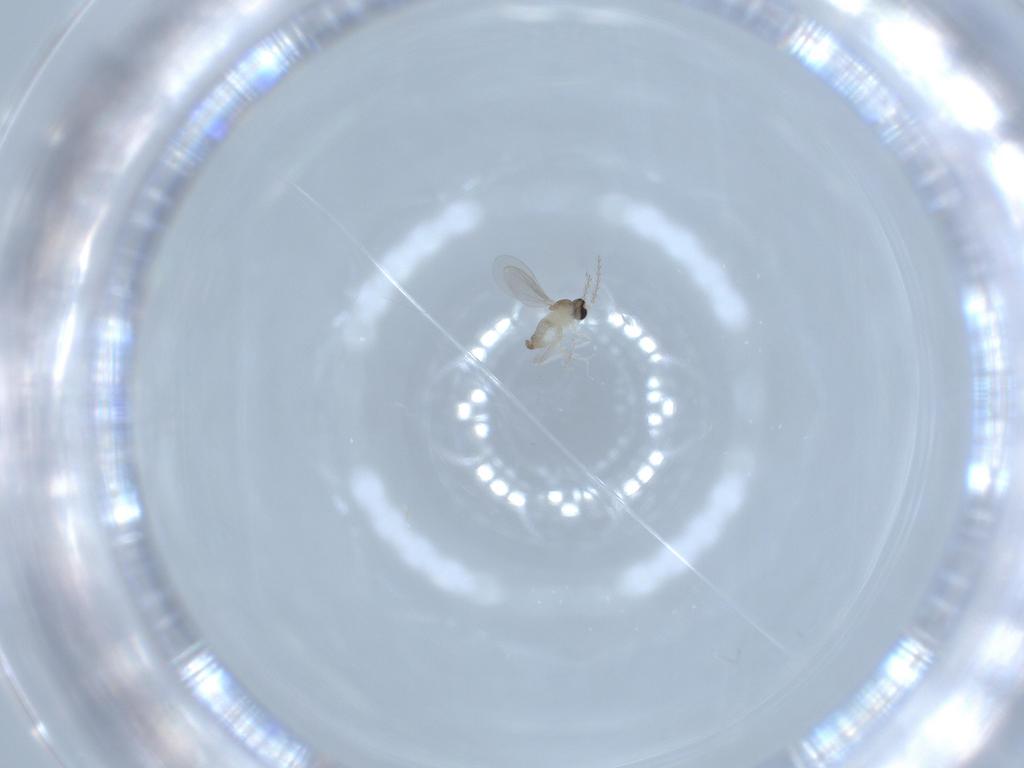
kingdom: Animalia
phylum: Arthropoda
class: Insecta
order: Diptera
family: Cecidomyiidae
